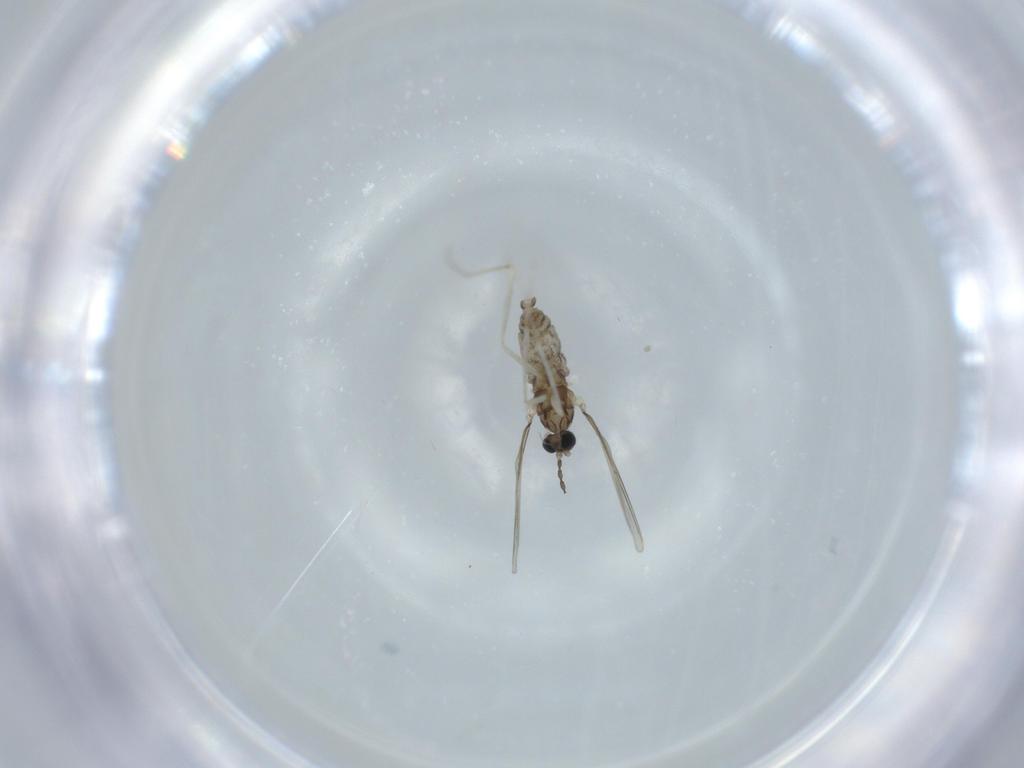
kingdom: Animalia
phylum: Arthropoda
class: Insecta
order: Diptera
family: Cecidomyiidae
